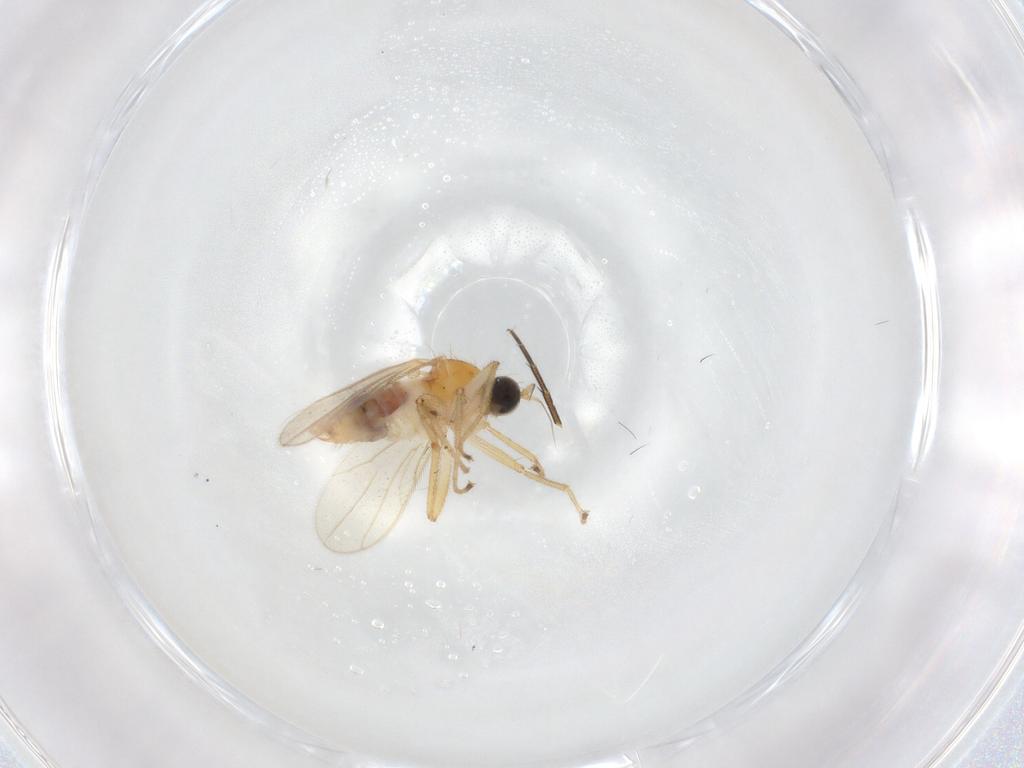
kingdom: Animalia
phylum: Arthropoda
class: Insecta
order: Diptera
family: Hybotidae
